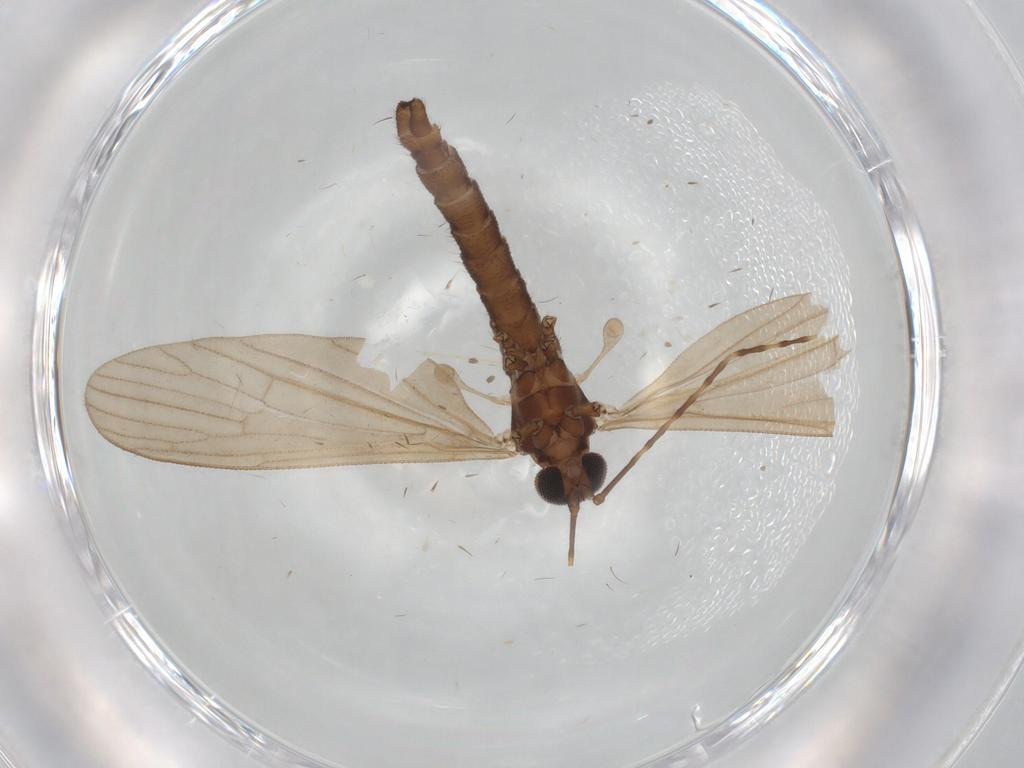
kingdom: Animalia
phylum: Arthropoda
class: Insecta
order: Diptera
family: Limoniidae
